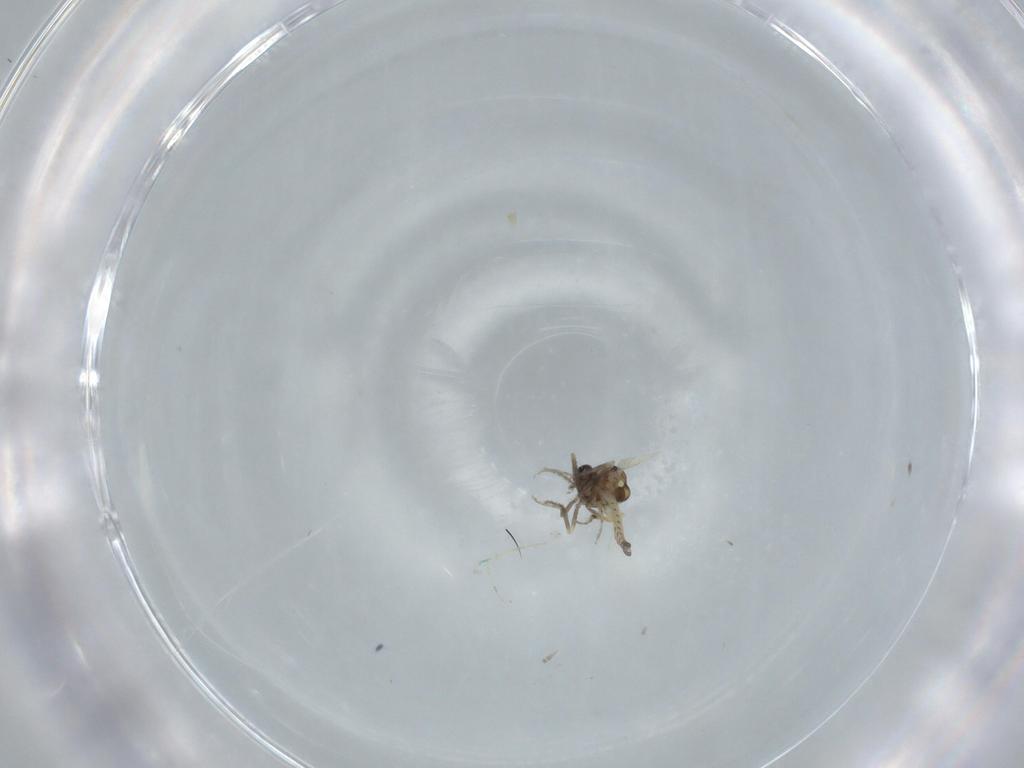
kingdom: Animalia
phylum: Arthropoda
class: Insecta
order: Diptera
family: Ceratopogonidae
